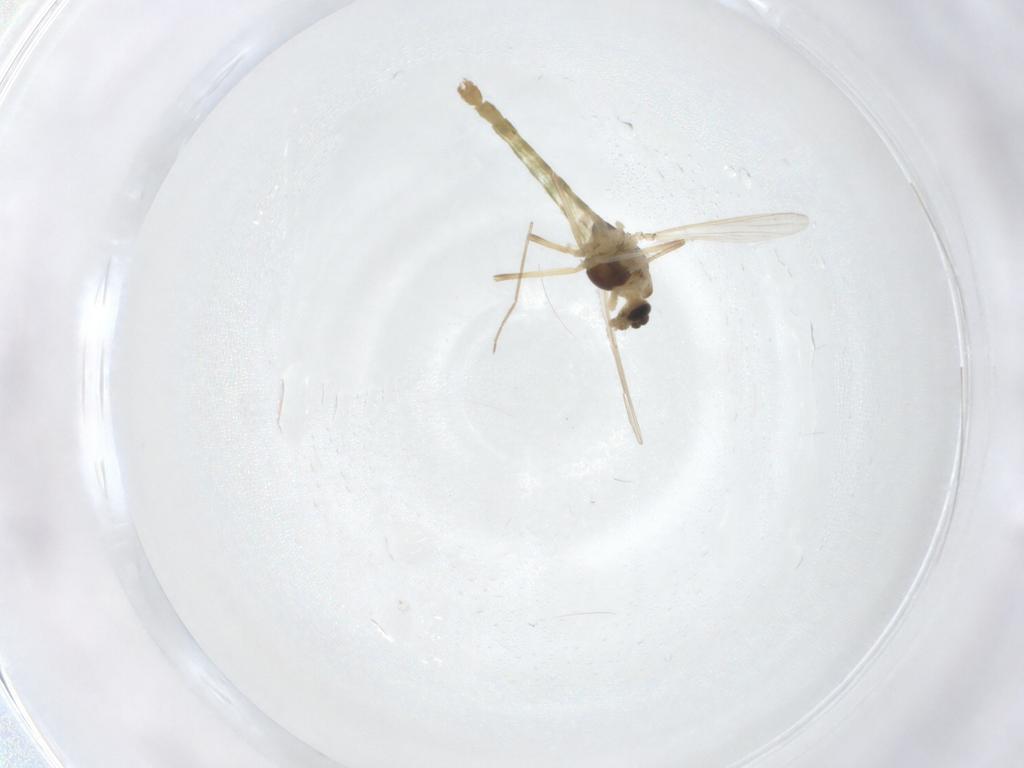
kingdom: Animalia
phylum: Arthropoda
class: Insecta
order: Diptera
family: Chironomidae
